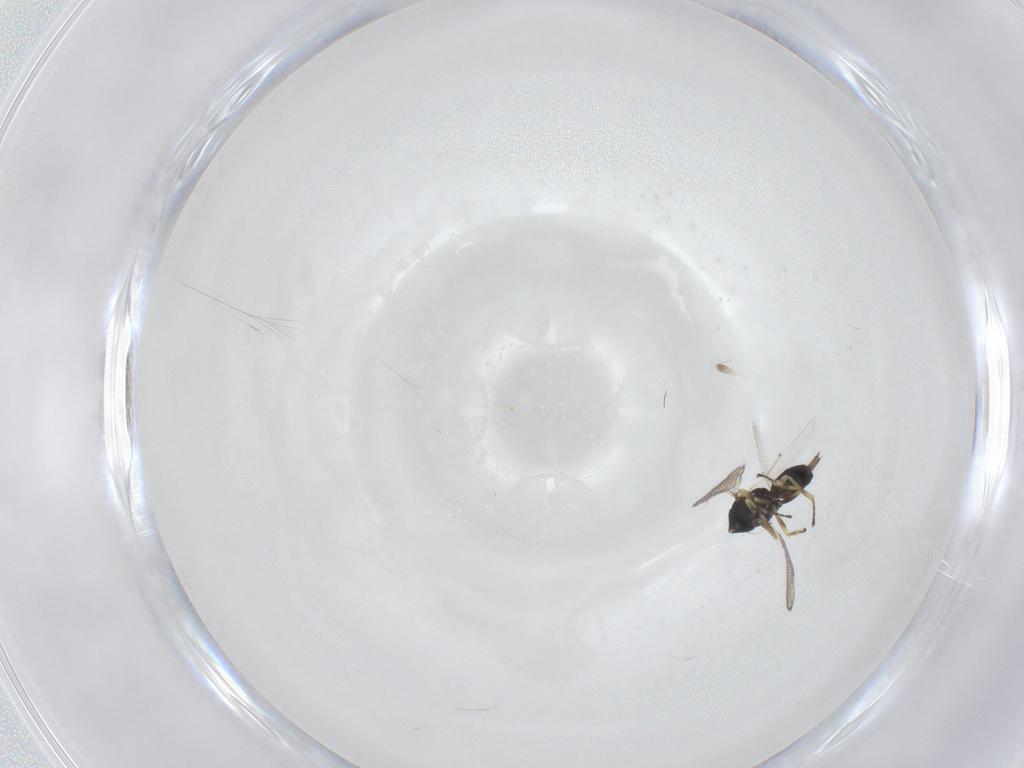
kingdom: Animalia
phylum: Arthropoda
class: Insecta
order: Hymenoptera
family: Eulophidae
